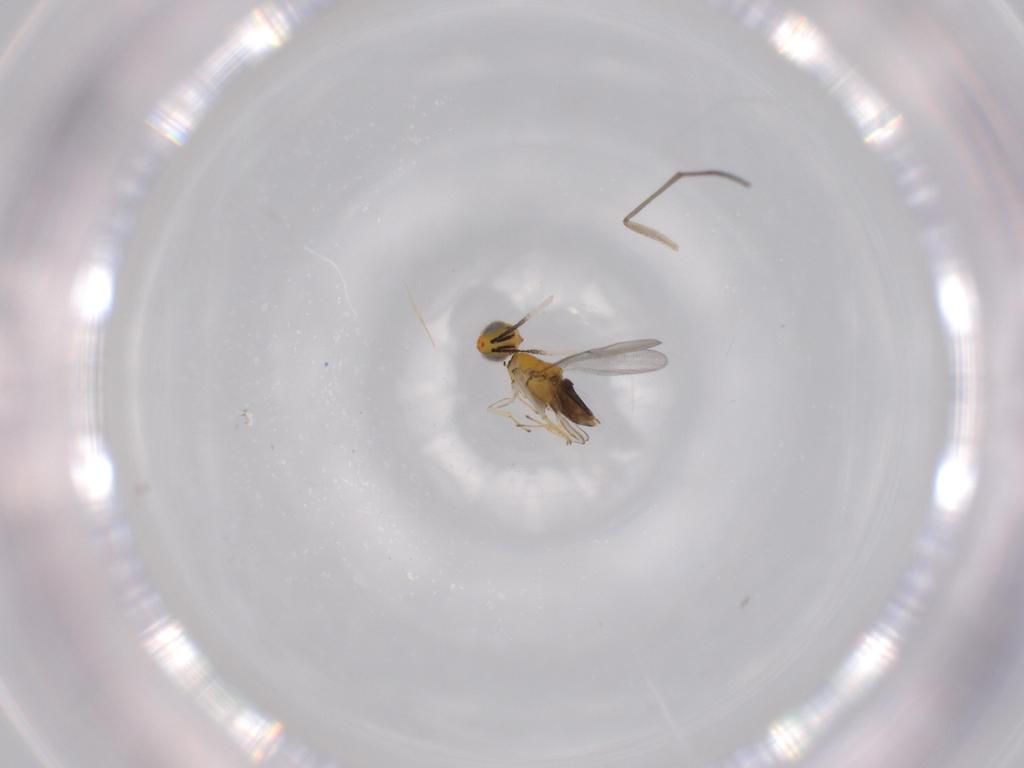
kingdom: Animalia
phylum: Arthropoda
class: Insecta
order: Diptera
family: Sciaridae
